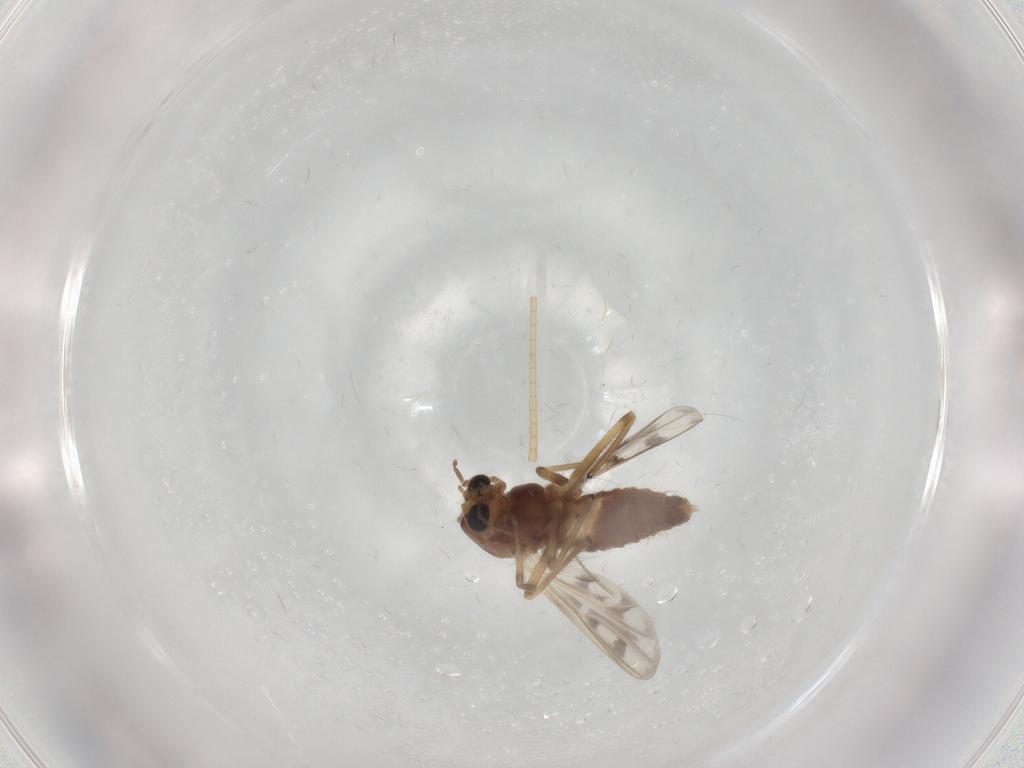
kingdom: Animalia
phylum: Arthropoda
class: Insecta
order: Diptera
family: Chironomidae
